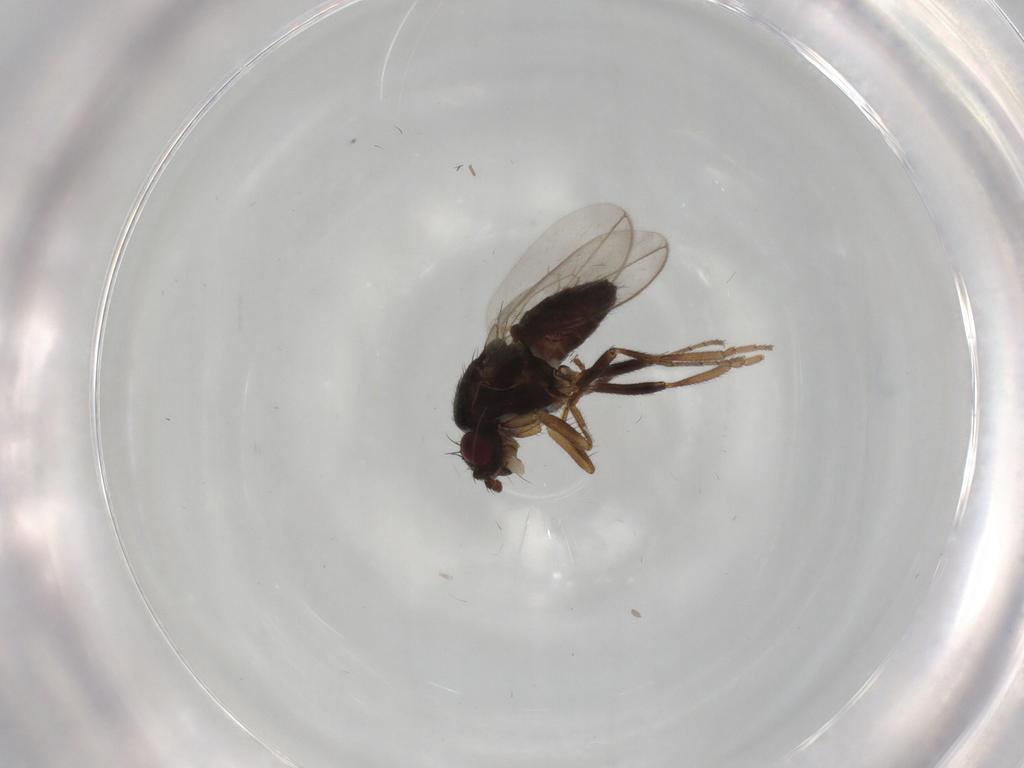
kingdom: Animalia
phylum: Arthropoda
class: Insecta
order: Diptera
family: Sphaeroceridae
